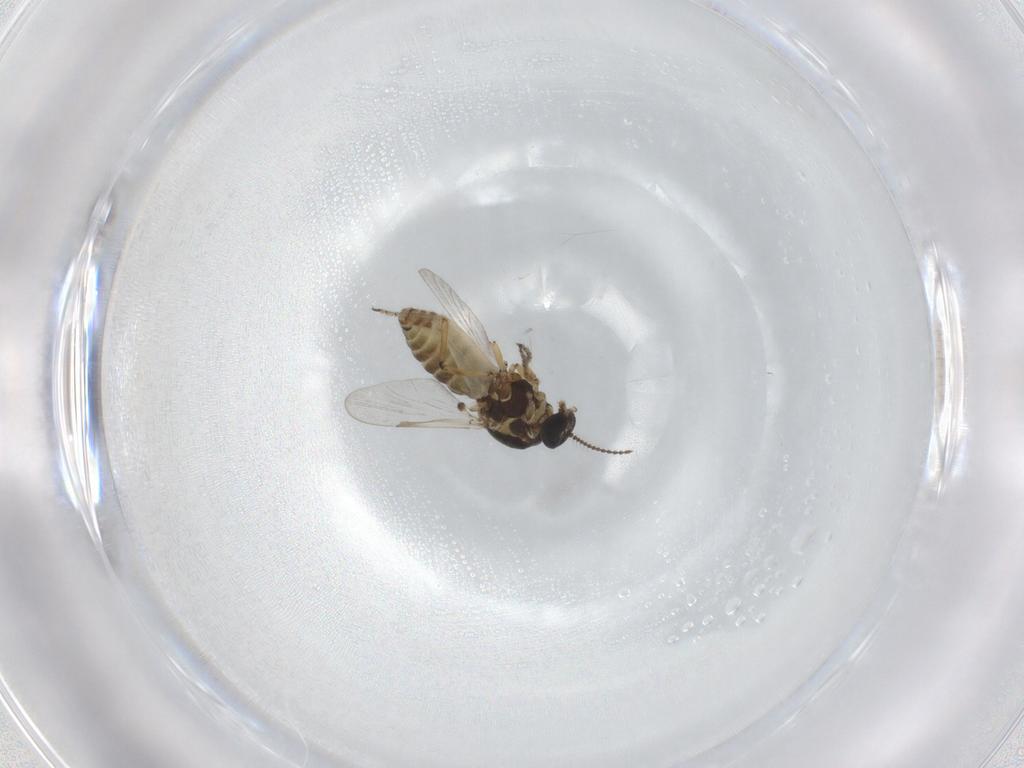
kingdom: Animalia
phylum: Arthropoda
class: Insecta
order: Diptera
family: Ceratopogonidae
